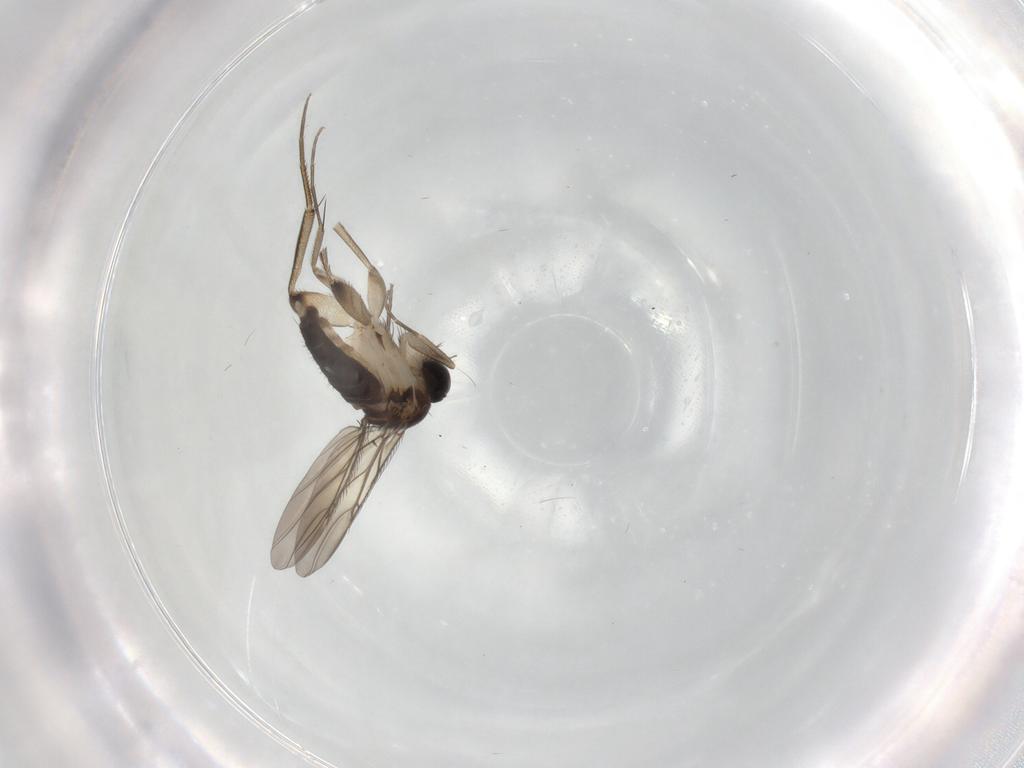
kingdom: Animalia
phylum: Arthropoda
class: Insecta
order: Diptera
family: Phoridae
